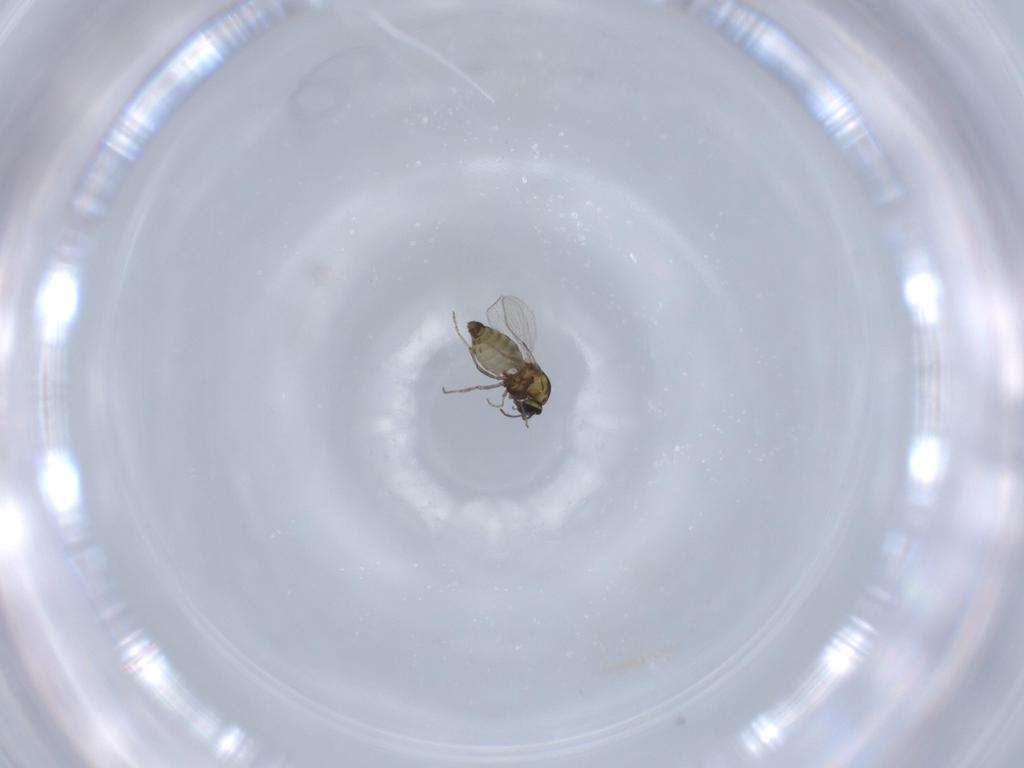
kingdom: Animalia
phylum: Arthropoda
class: Insecta
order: Diptera
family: Ceratopogonidae
